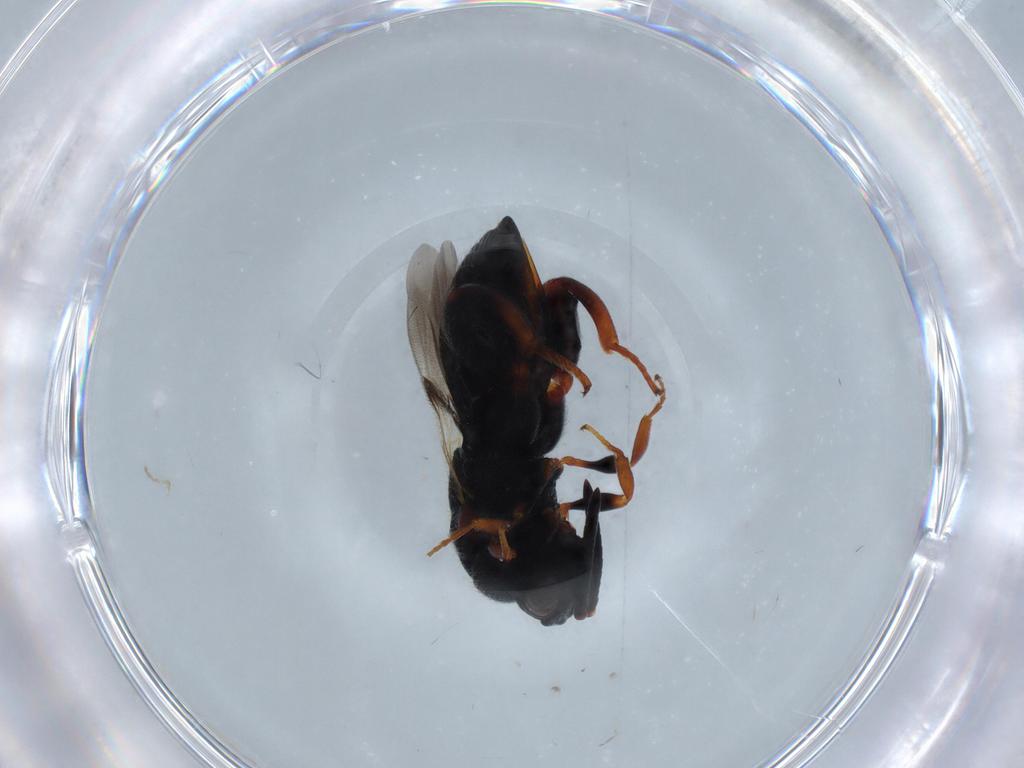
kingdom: Animalia
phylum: Arthropoda
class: Insecta
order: Hymenoptera
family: Chalcididae
